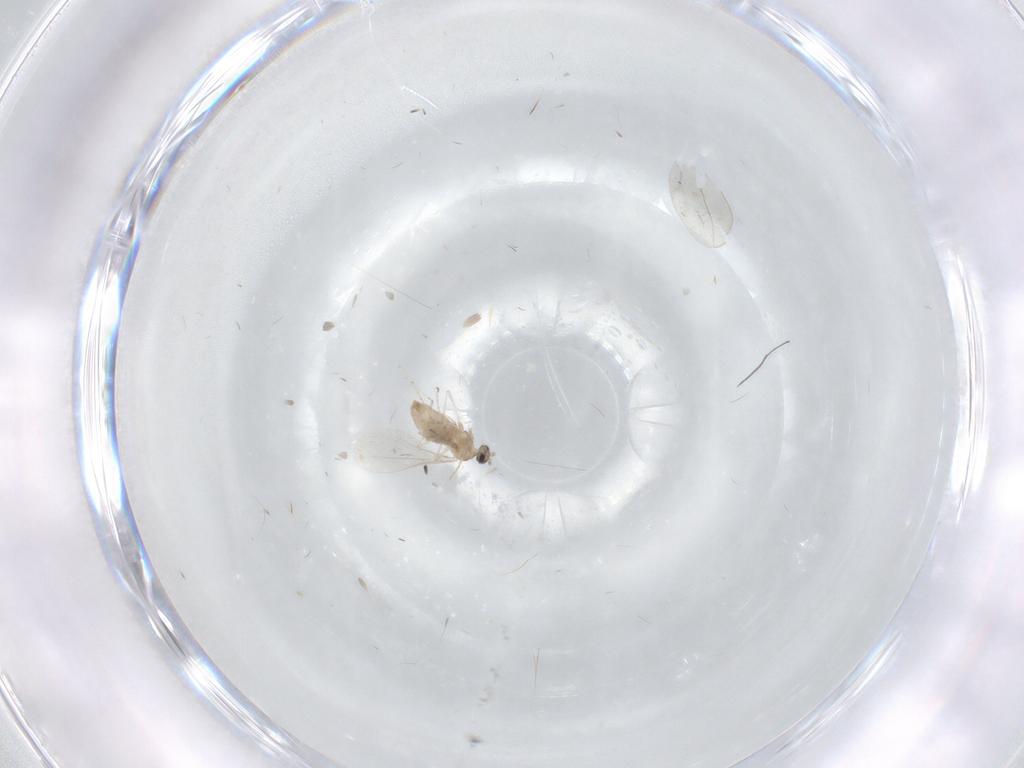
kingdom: Animalia
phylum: Arthropoda
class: Insecta
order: Diptera
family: Cecidomyiidae
